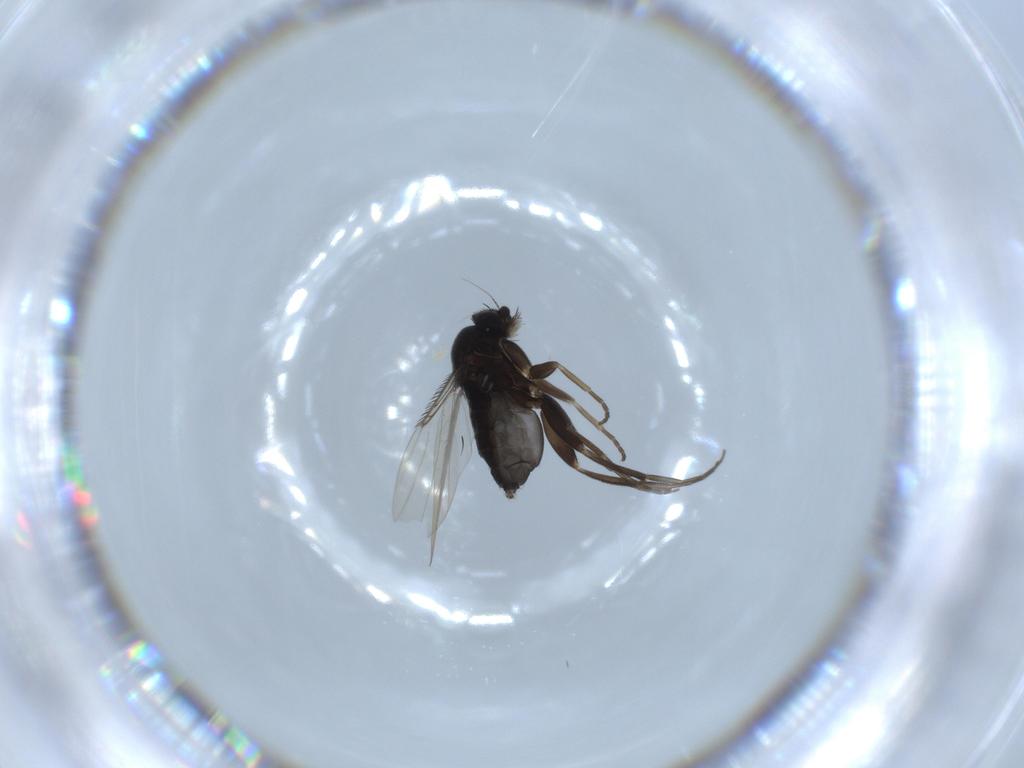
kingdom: Animalia
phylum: Arthropoda
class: Insecta
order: Diptera
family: Phoridae
